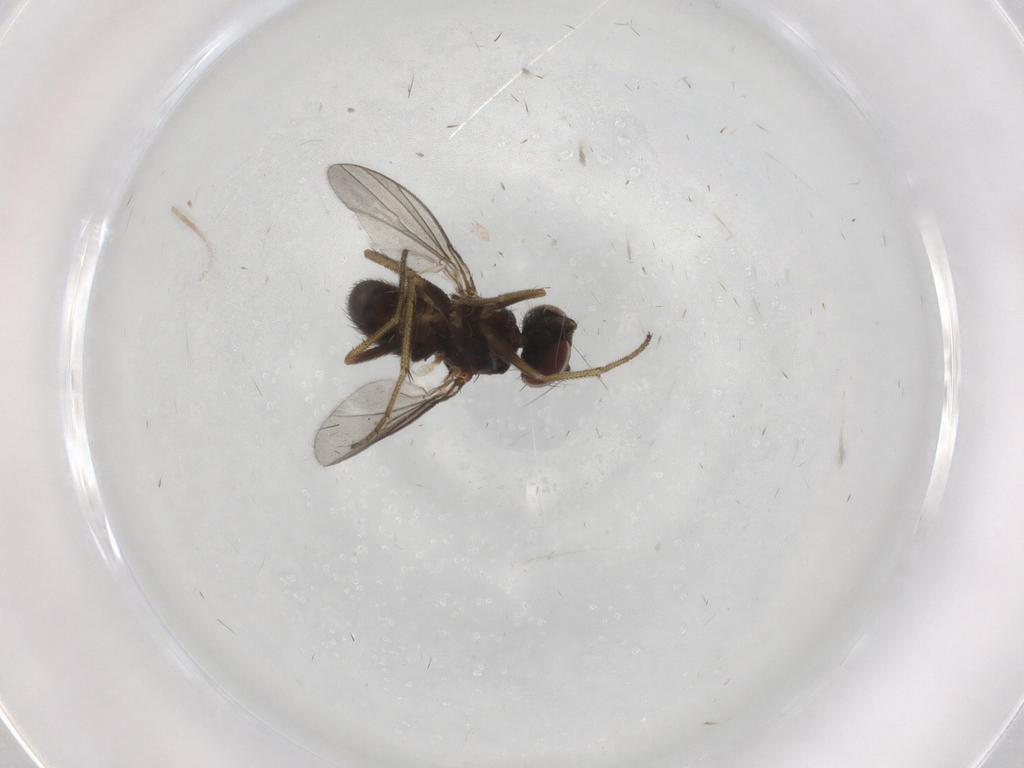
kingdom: Animalia
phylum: Arthropoda
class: Insecta
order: Diptera
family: Dolichopodidae
